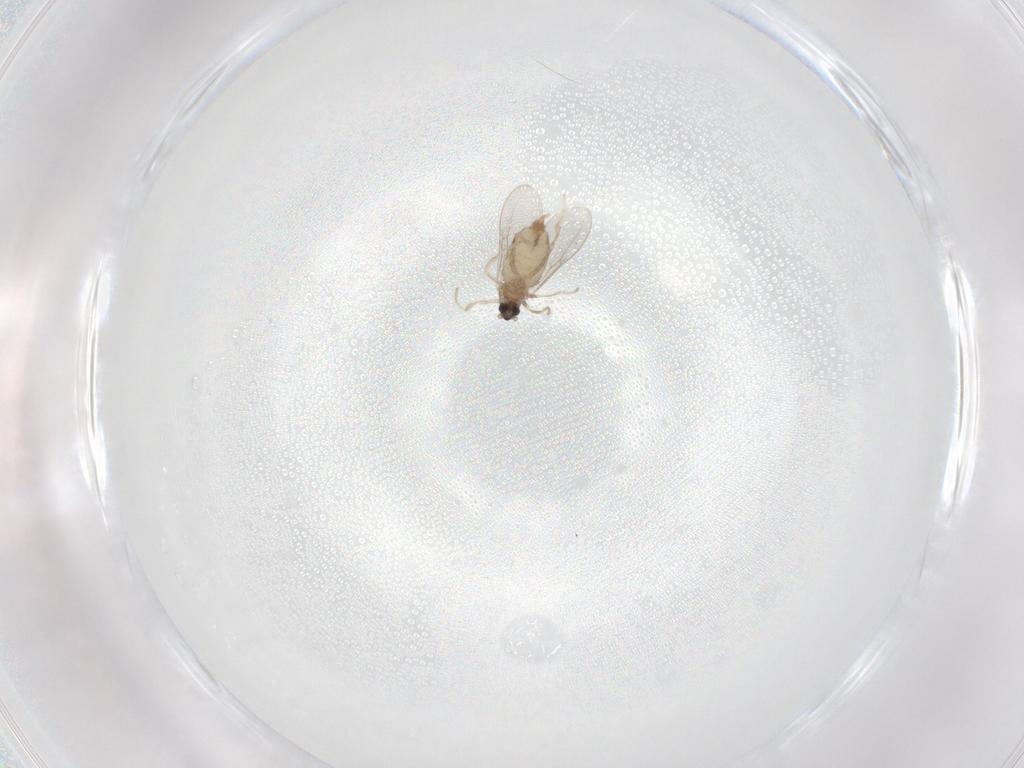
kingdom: Animalia
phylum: Arthropoda
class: Insecta
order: Diptera
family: Cecidomyiidae
